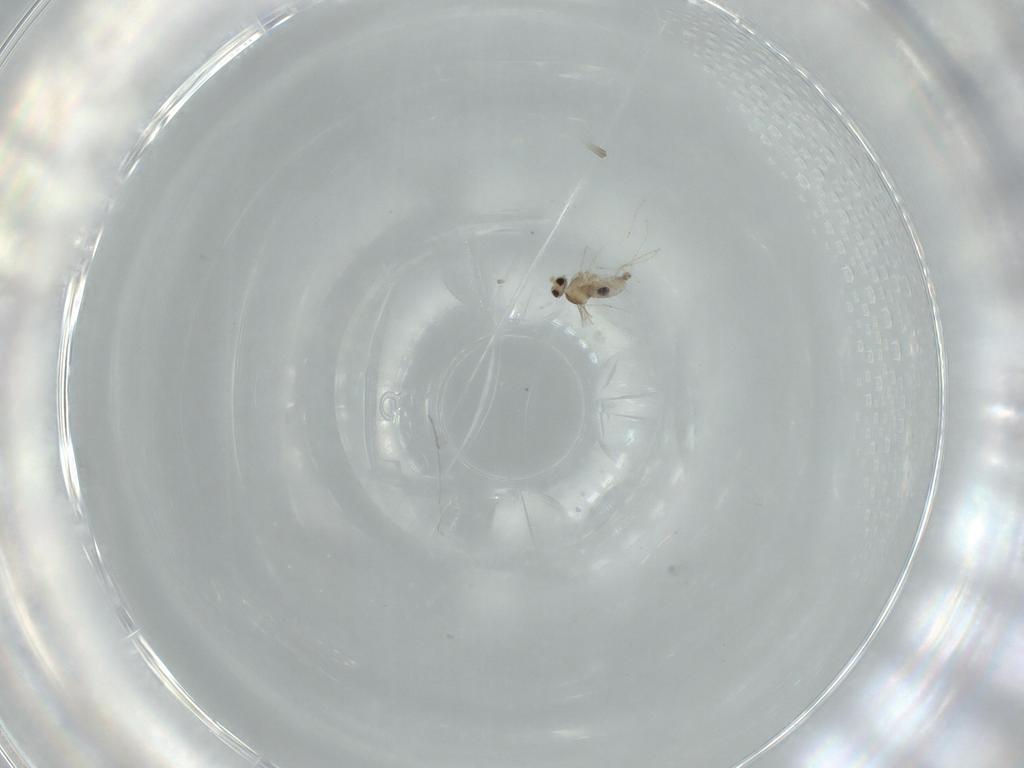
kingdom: Animalia
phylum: Arthropoda
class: Insecta
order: Diptera
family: Cecidomyiidae
